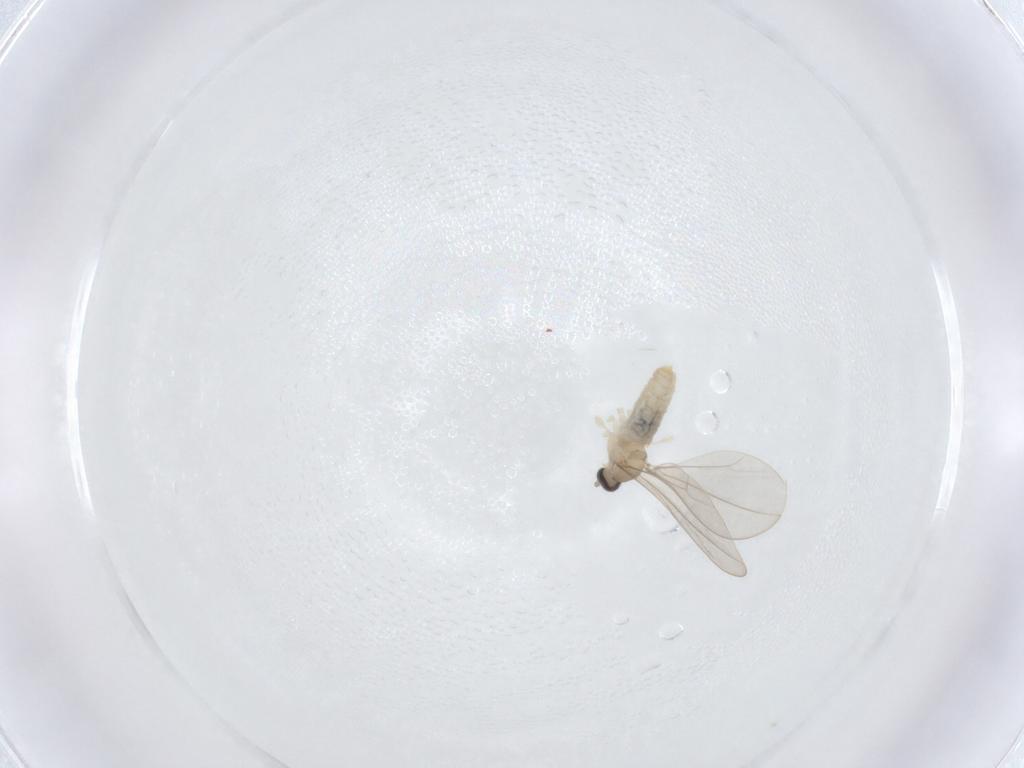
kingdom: Animalia
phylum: Arthropoda
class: Insecta
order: Diptera
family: Cecidomyiidae
